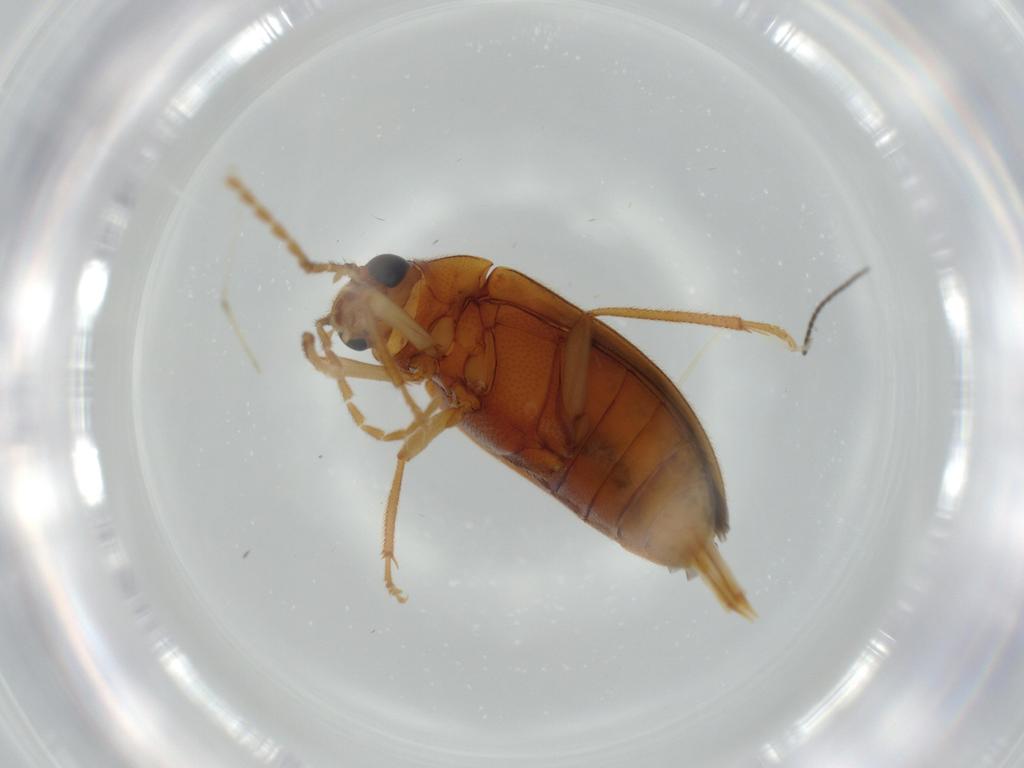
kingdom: Animalia
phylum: Arthropoda
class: Insecta
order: Coleoptera
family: Ptilodactylidae
